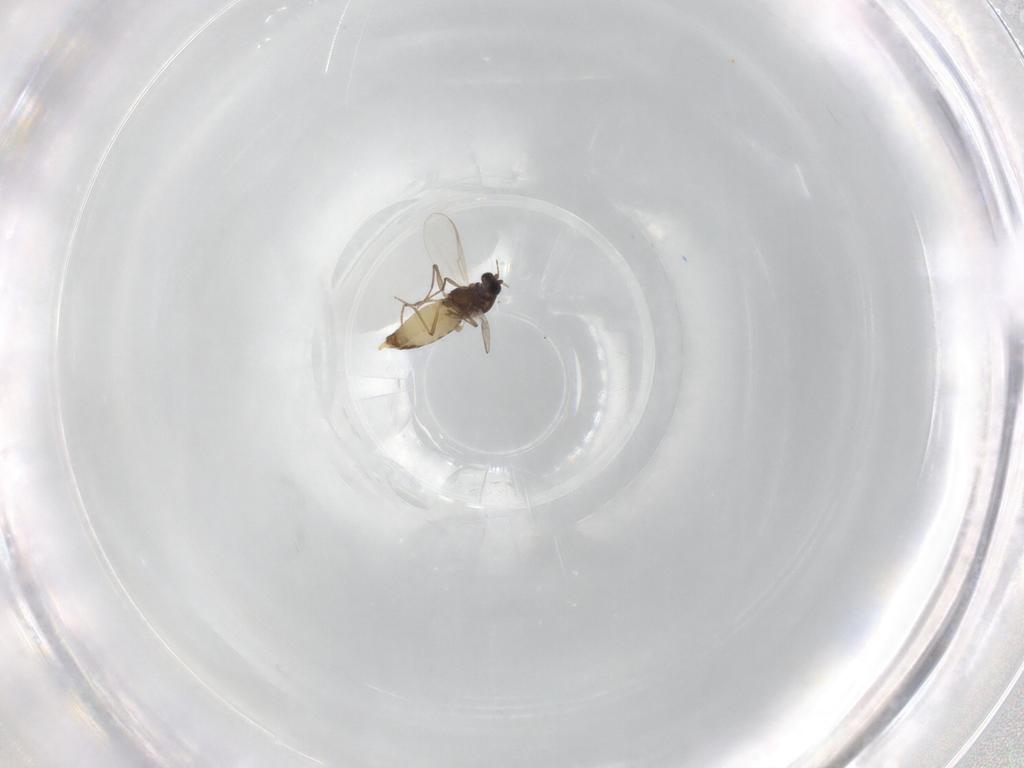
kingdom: Animalia
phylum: Arthropoda
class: Insecta
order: Diptera
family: Chironomidae
